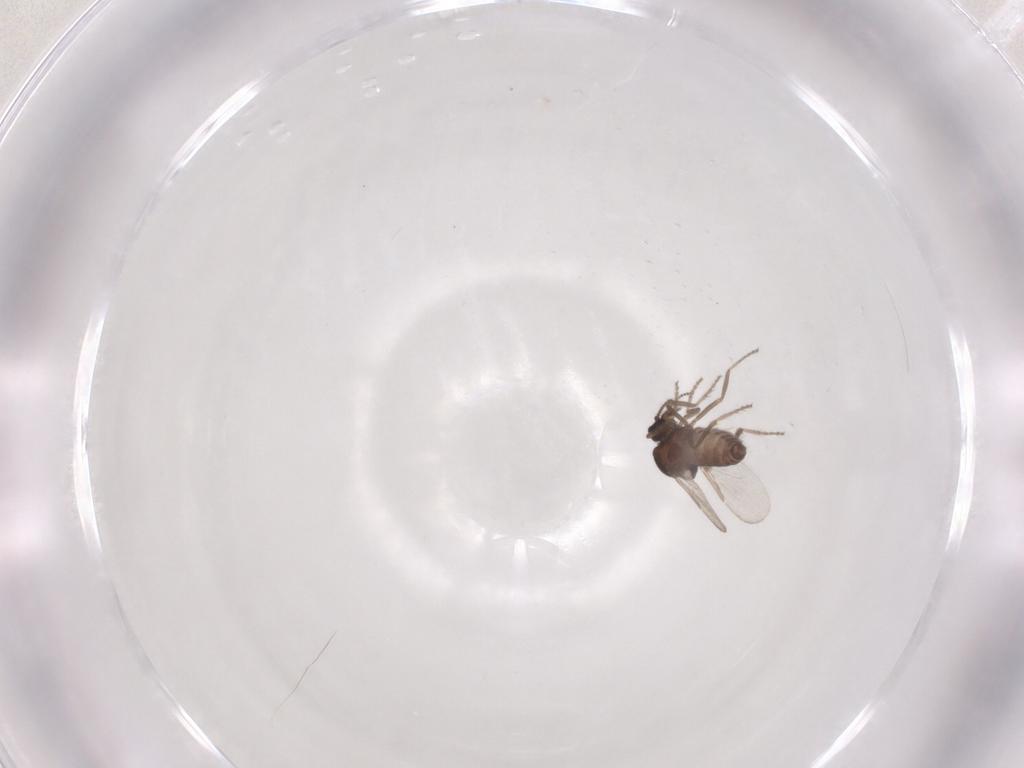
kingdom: Animalia
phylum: Arthropoda
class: Insecta
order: Diptera
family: Ceratopogonidae
